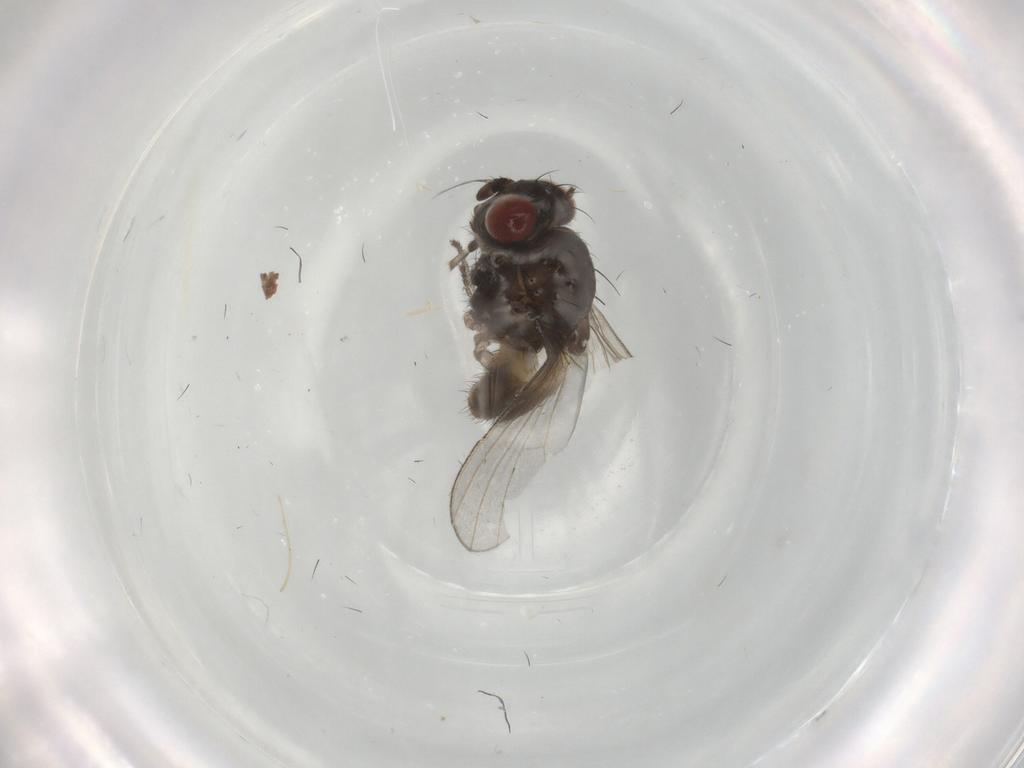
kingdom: Animalia
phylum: Arthropoda
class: Insecta
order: Diptera
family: Lauxaniidae
